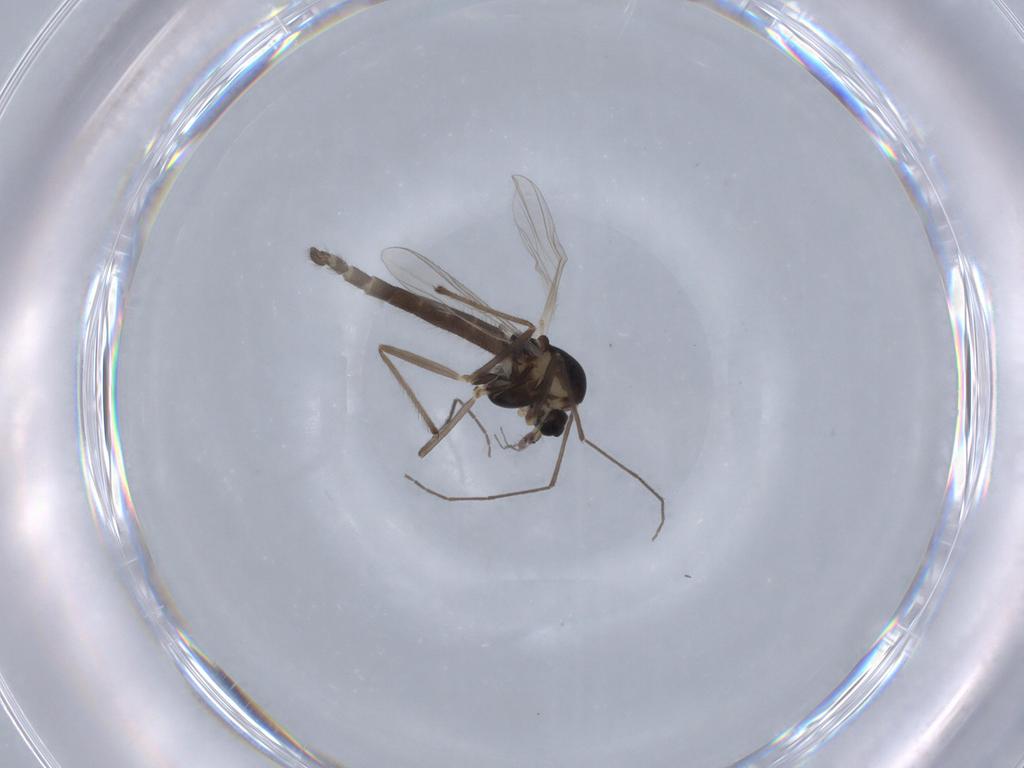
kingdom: Animalia
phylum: Arthropoda
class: Insecta
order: Diptera
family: Chironomidae
